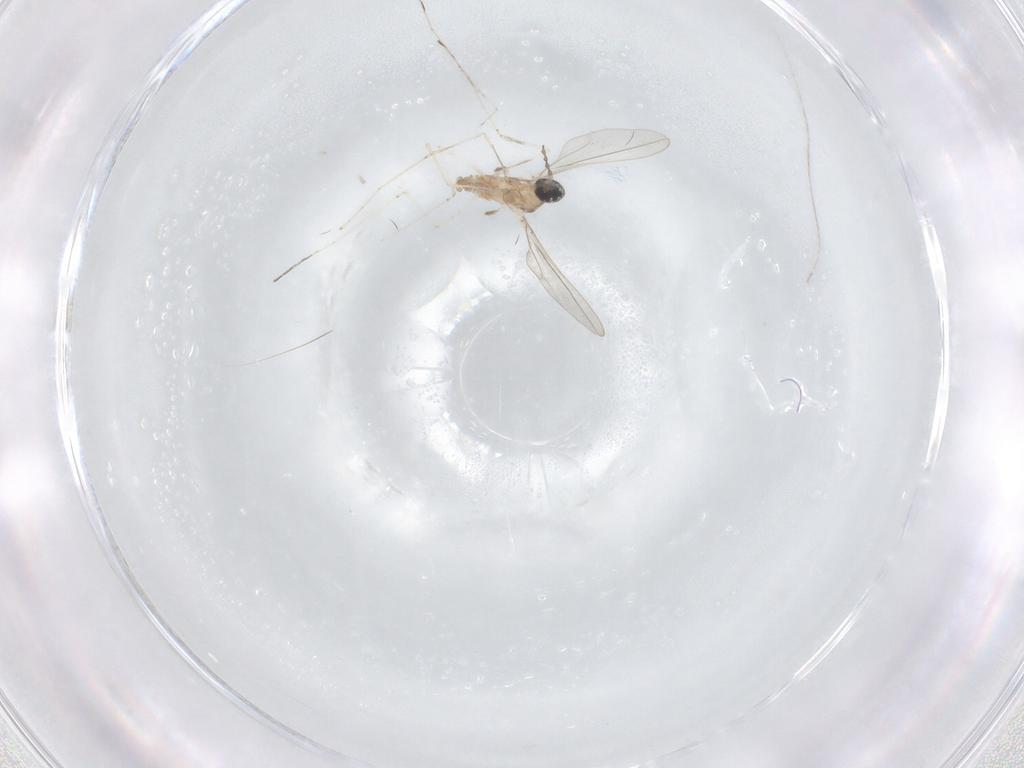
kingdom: Animalia
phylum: Arthropoda
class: Insecta
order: Diptera
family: Cecidomyiidae
